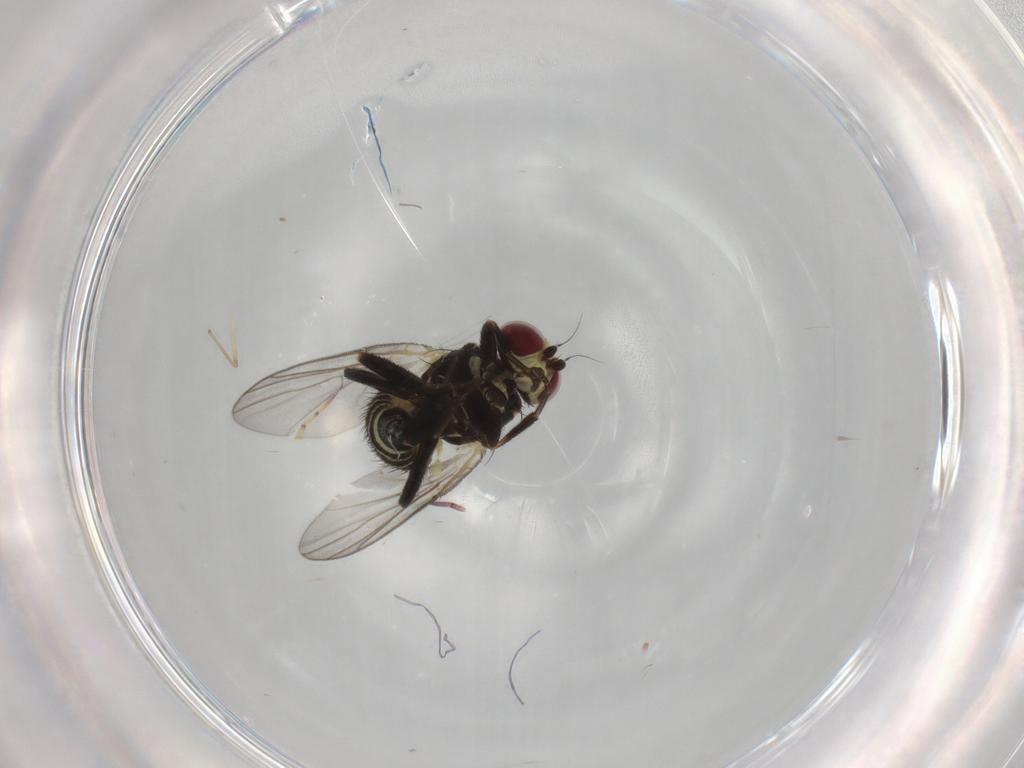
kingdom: Animalia
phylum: Arthropoda
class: Insecta
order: Diptera
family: Agromyzidae
